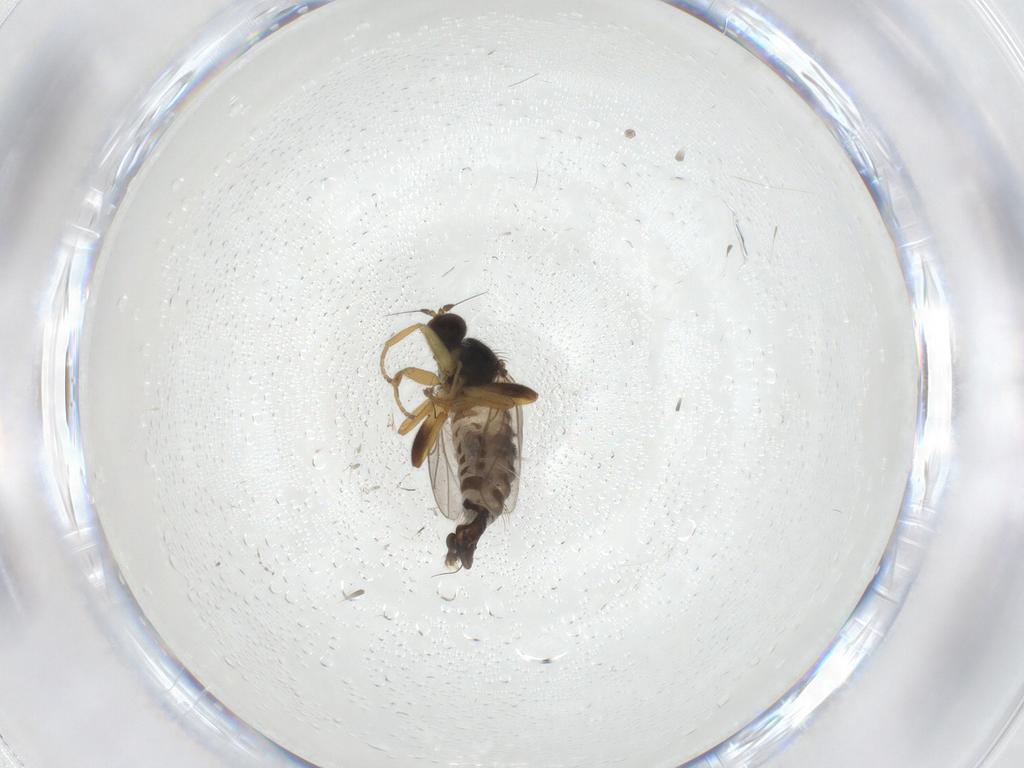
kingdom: Animalia
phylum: Arthropoda
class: Insecta
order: Diptera
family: Hybotidae
